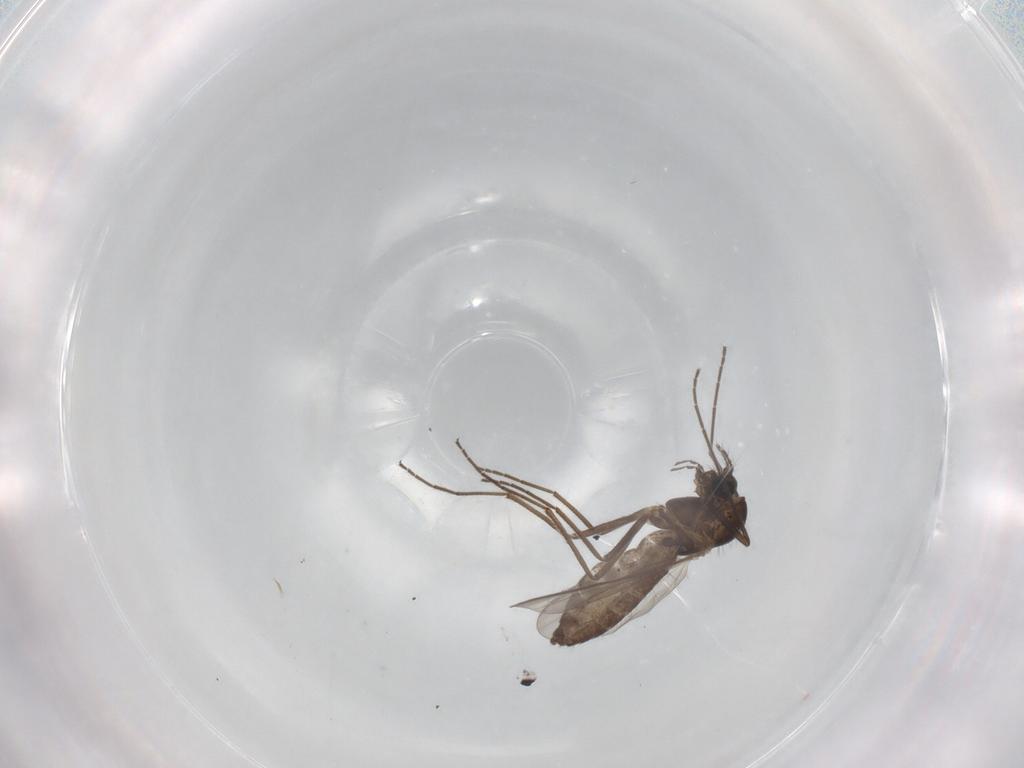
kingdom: Animalia
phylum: Arthropoda
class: Insecta
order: Diptera
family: Chironomidae
